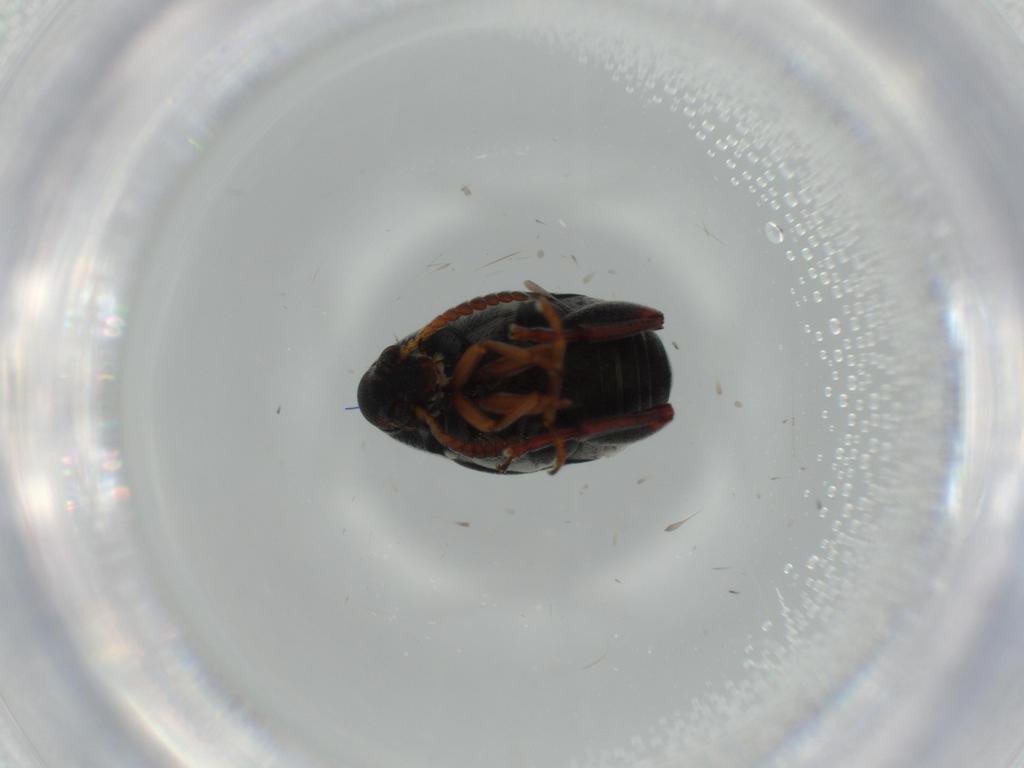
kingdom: Animalia
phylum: Arthropoda
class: Insecta
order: Coleoptera
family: Chrysomelidae
